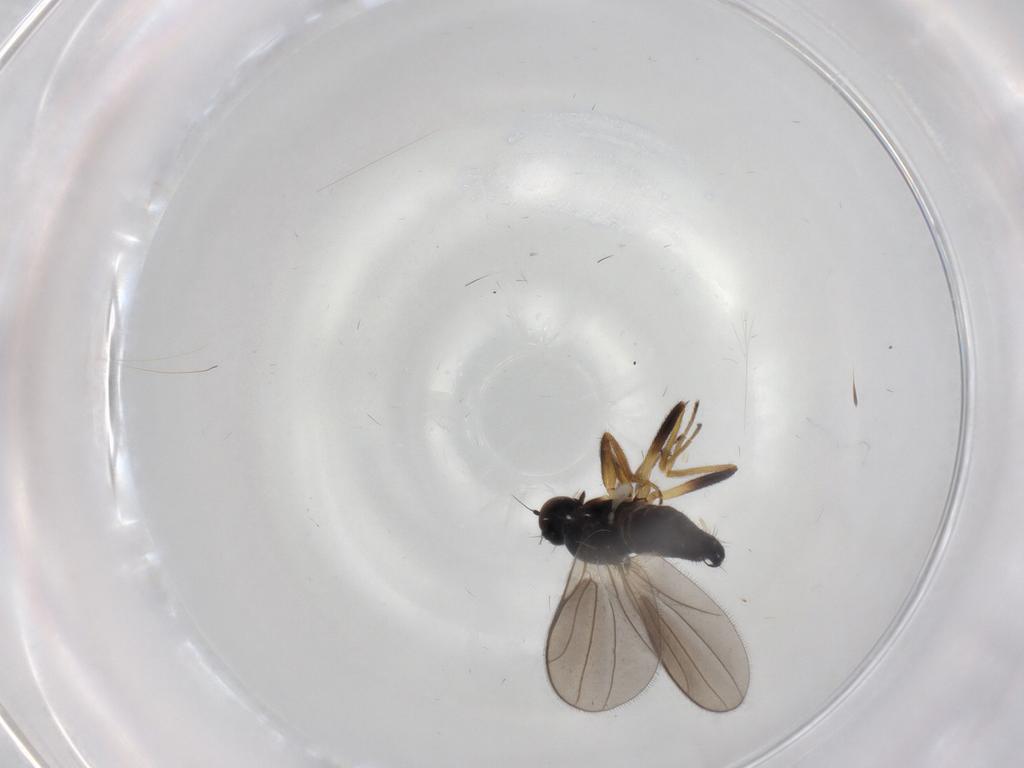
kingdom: Animalia
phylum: Arthropoda
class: Insecta
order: Diptera
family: Hybotidae
